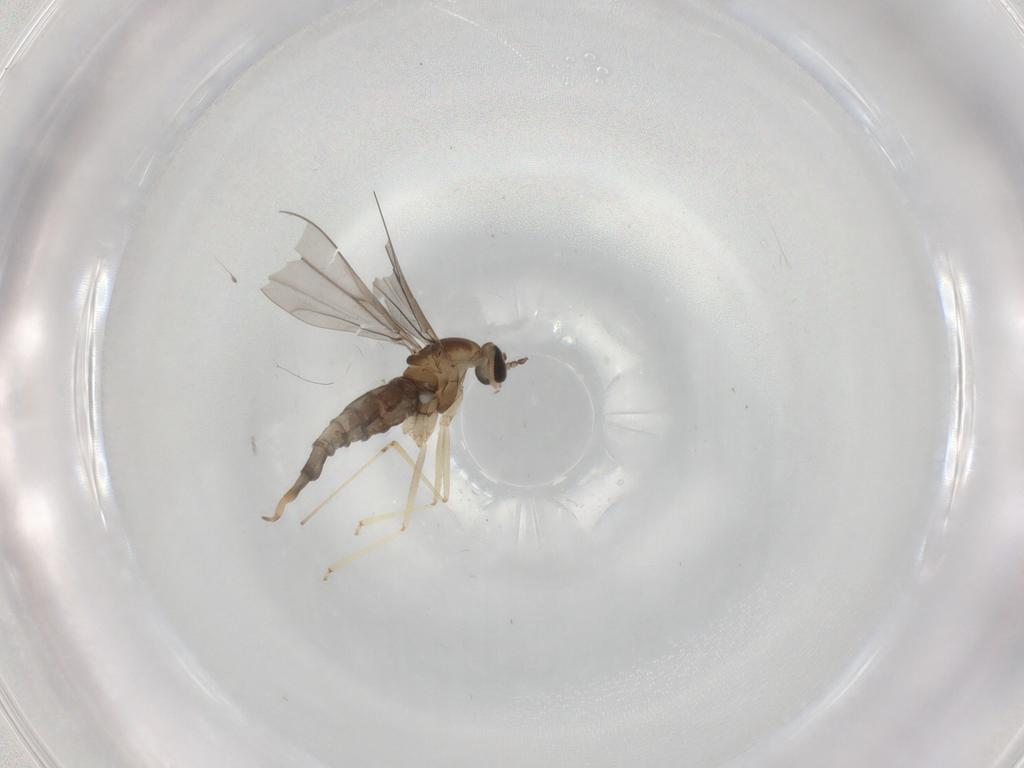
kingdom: Animalia
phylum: Arthropoda
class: Insecta
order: Diptera
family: Cecidomyiidae
